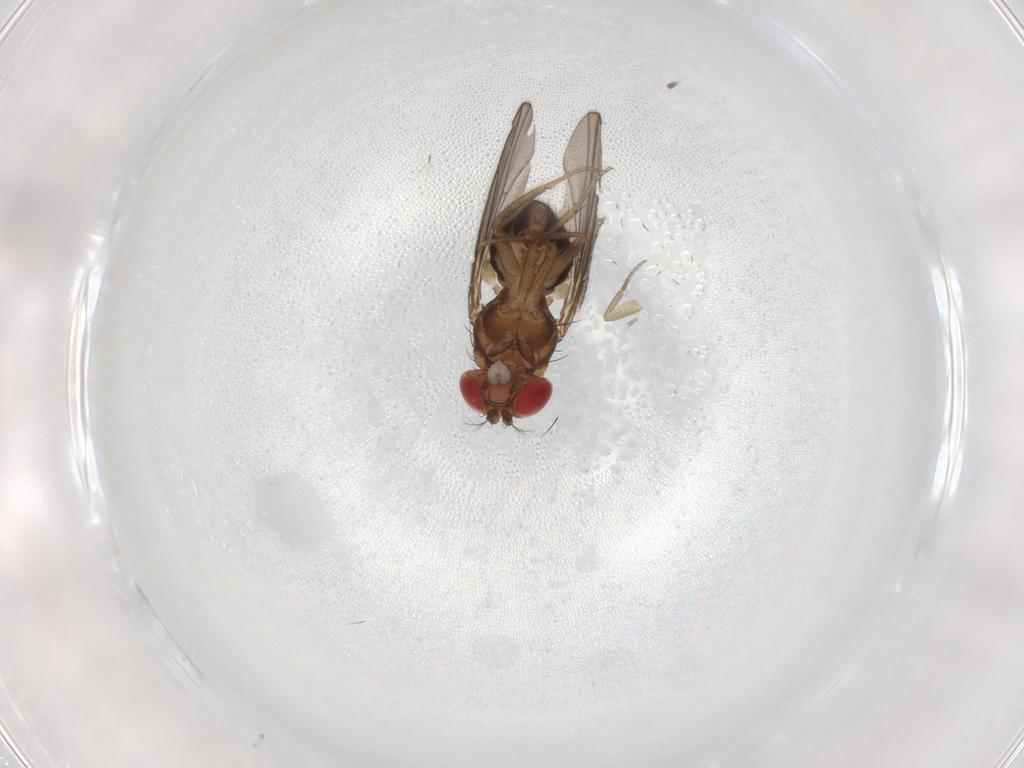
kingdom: Animalia
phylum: Arthropoda
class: Insecta
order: Diptera
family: Drosophilidae
